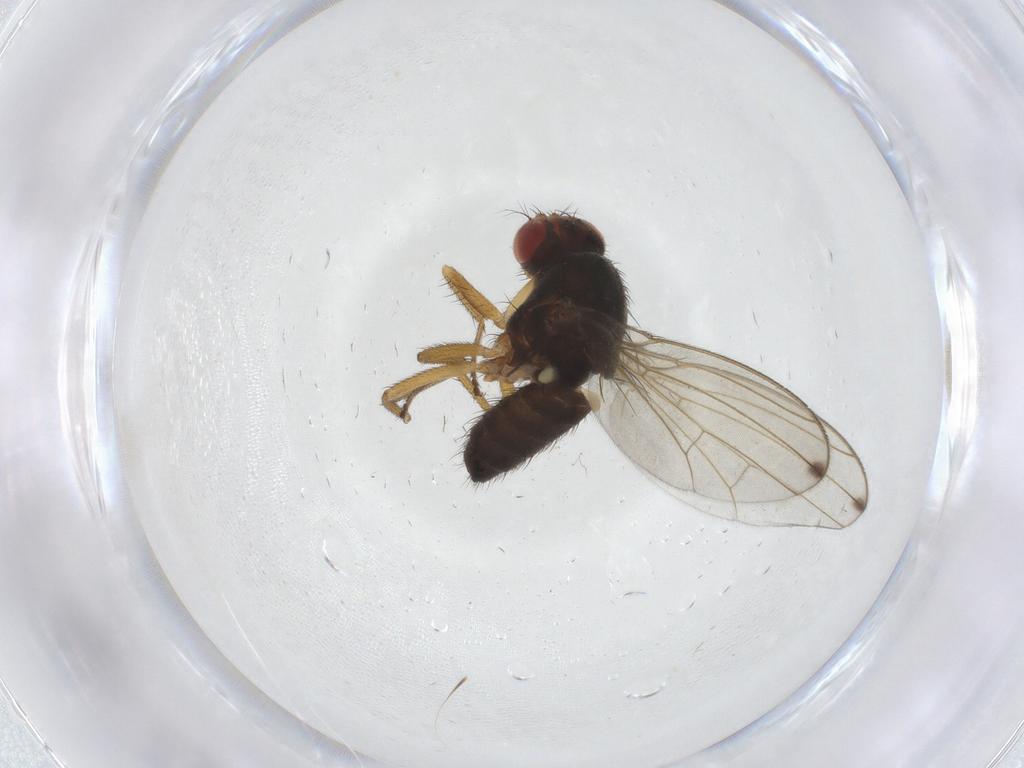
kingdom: Animalia
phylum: Arthropoda
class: Insecta
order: Diptera
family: Drosophilidae
